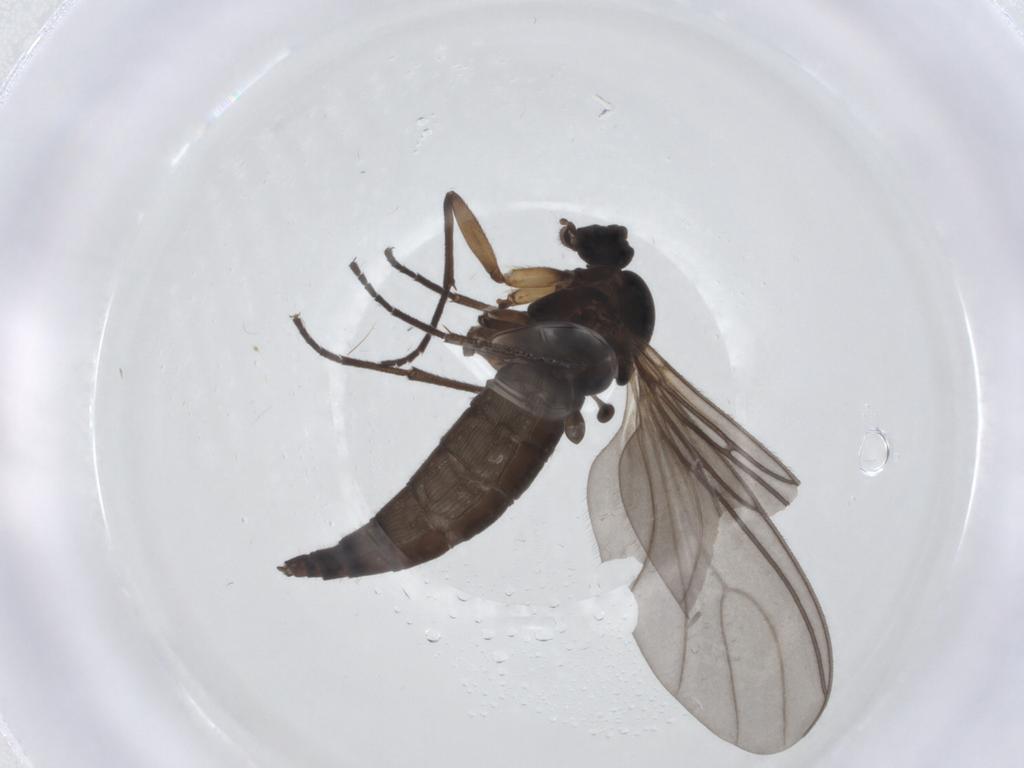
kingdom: Animalia
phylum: Arthropoda
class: Insecta
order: Diptera
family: Sciaridae
